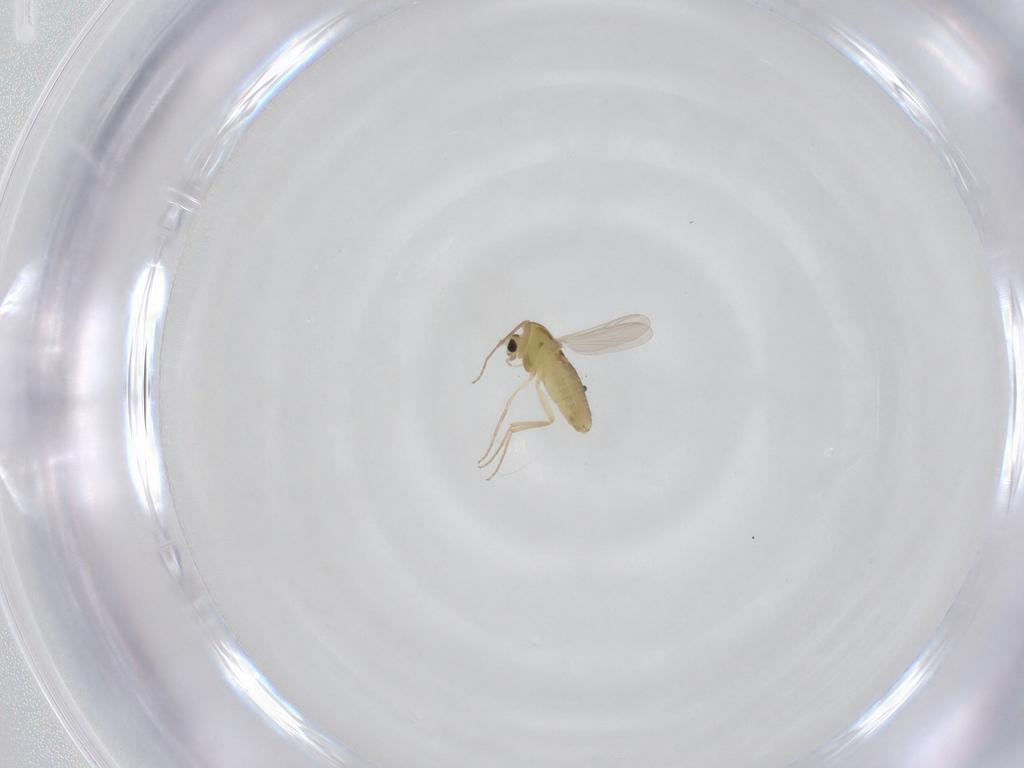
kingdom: Animalia
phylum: Arthropoda
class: Insecta
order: Diptera
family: Chironomidae
